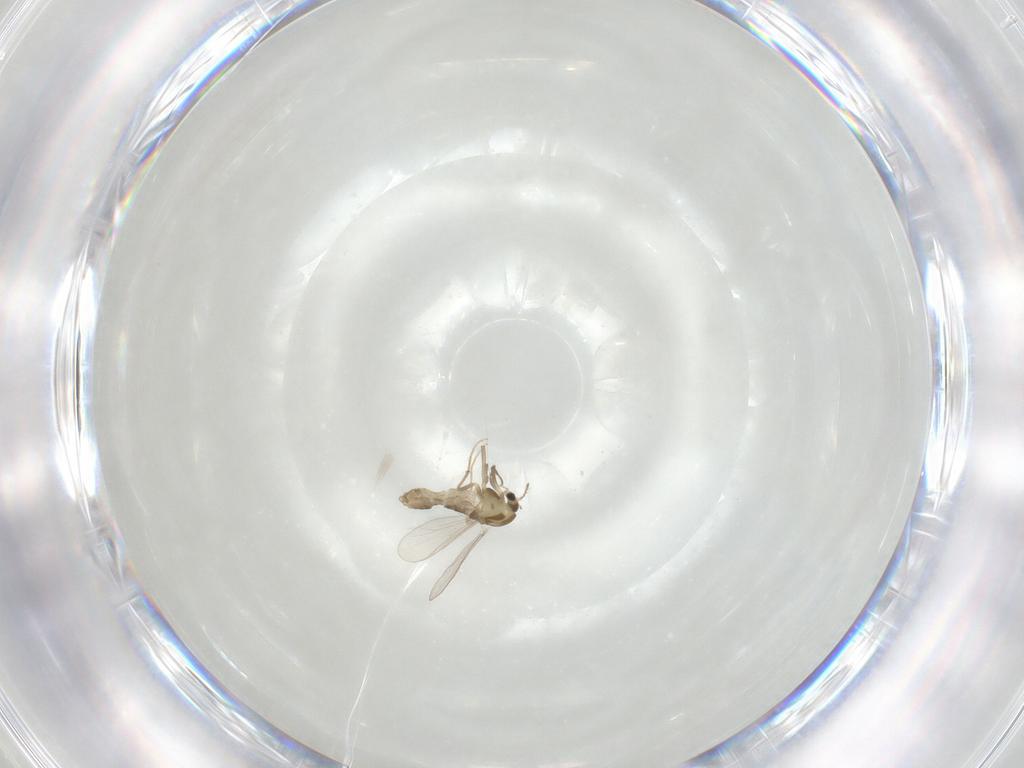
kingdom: Animalia
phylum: Arthropoda
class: Insecta
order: Diptera
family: Chironomidae
